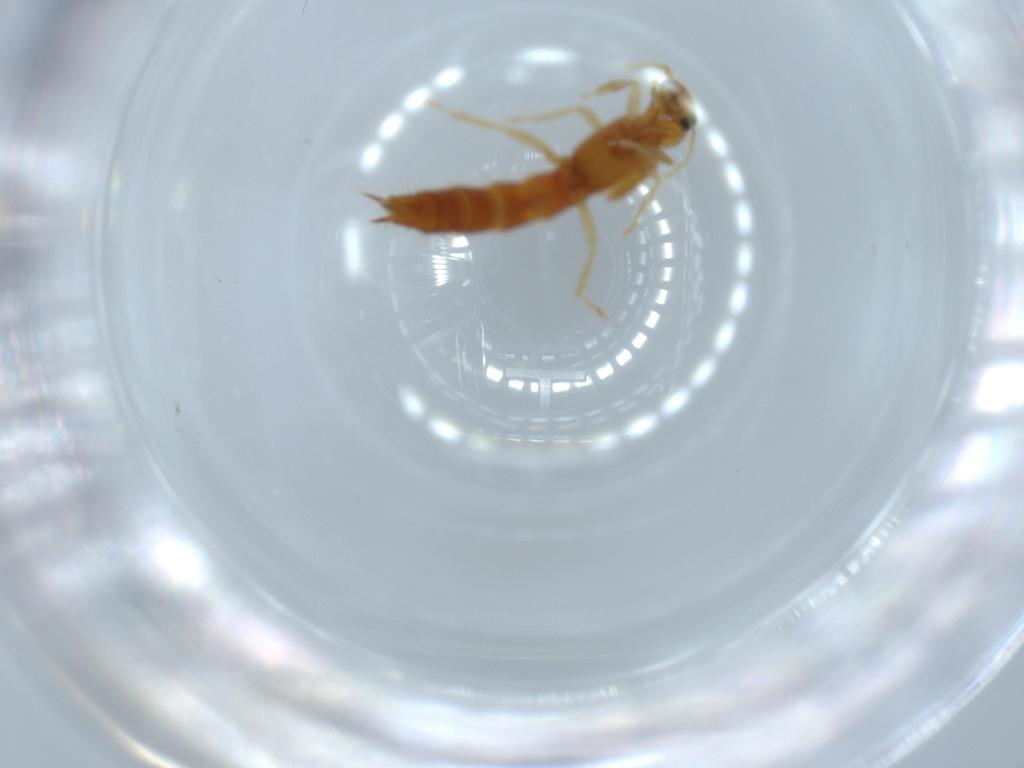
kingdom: Animalia
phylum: Arthropoda
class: Insecta
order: Coleoptera
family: Staphylinidae
